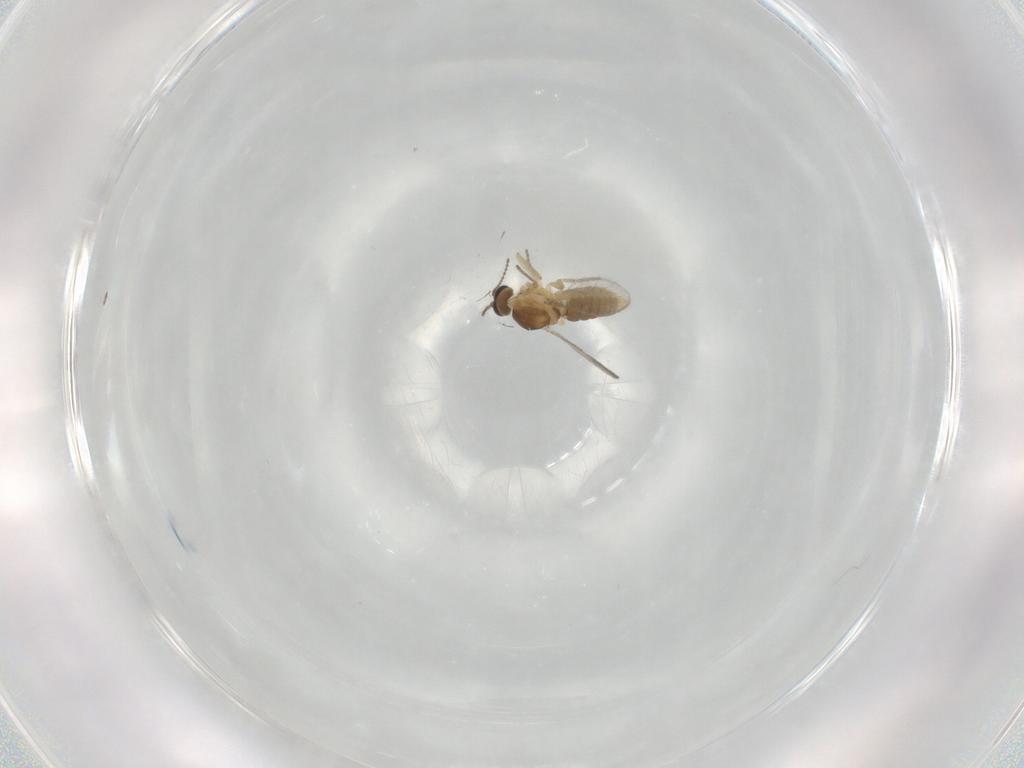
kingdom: Animalia
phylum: Arthropoda
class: Insecta
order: Diptera
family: Ceratopogonidae
